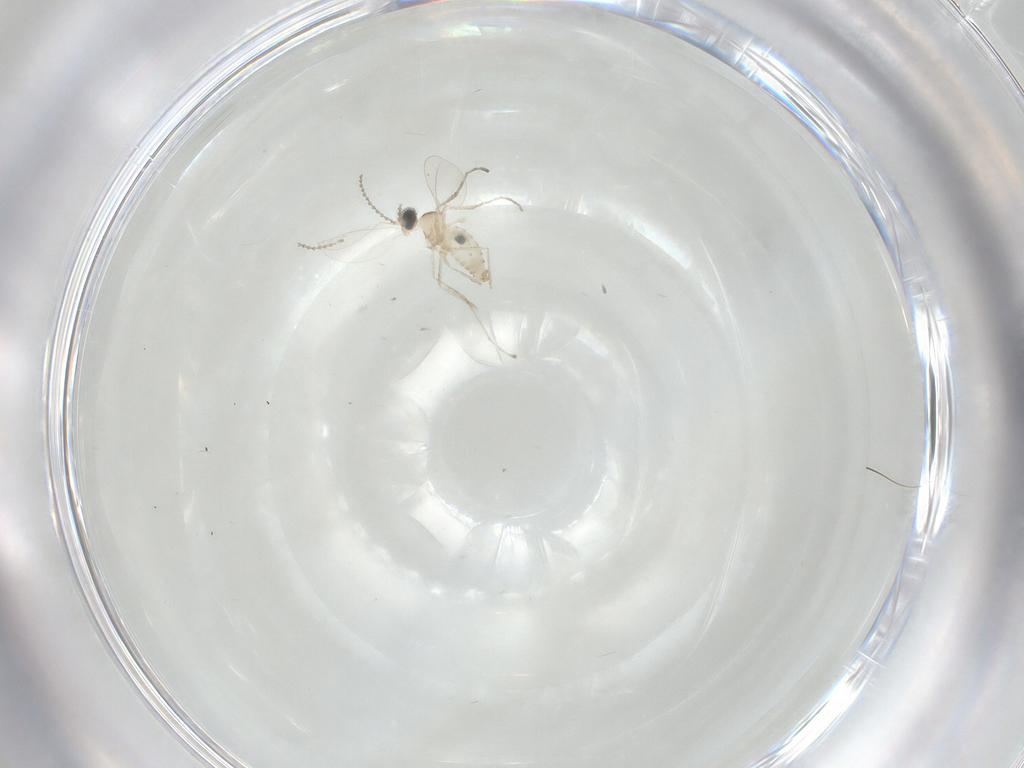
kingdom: Animalia
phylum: Arthropoda
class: Insecta
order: Diptera
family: Cecidomyiidae
